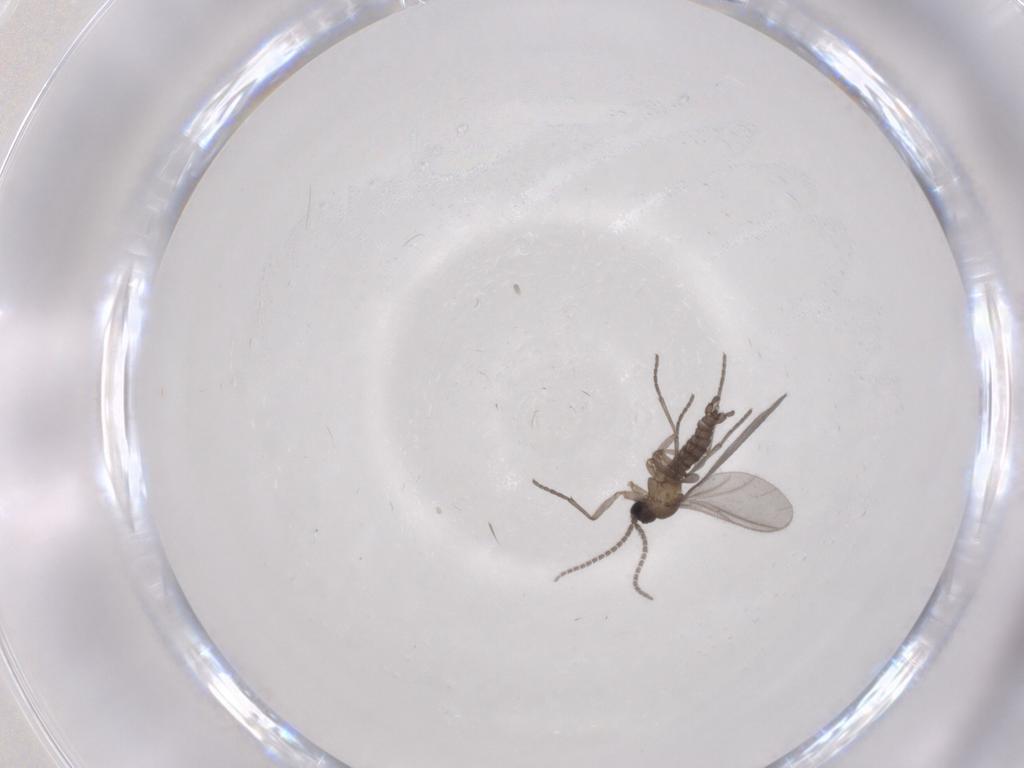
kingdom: Animalia
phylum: Arthropoda
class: Insecta
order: Diptera
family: Sciaridae
